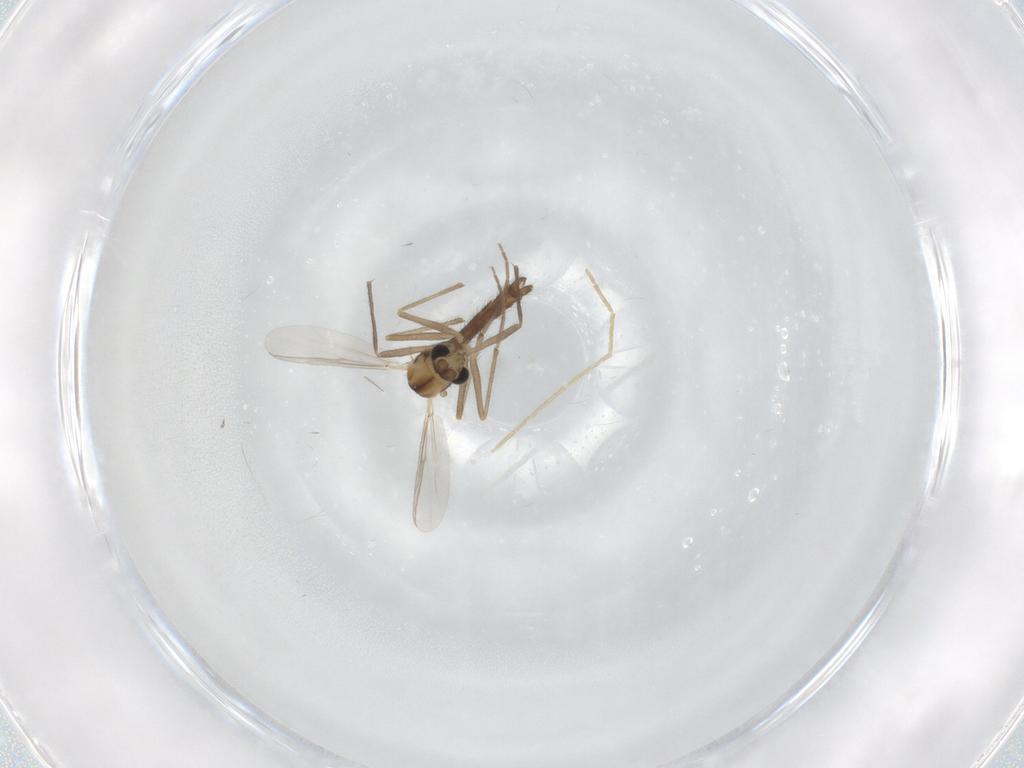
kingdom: Animalia
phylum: Arthropoda
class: Insecta
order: Diptera
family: Chironomidae
